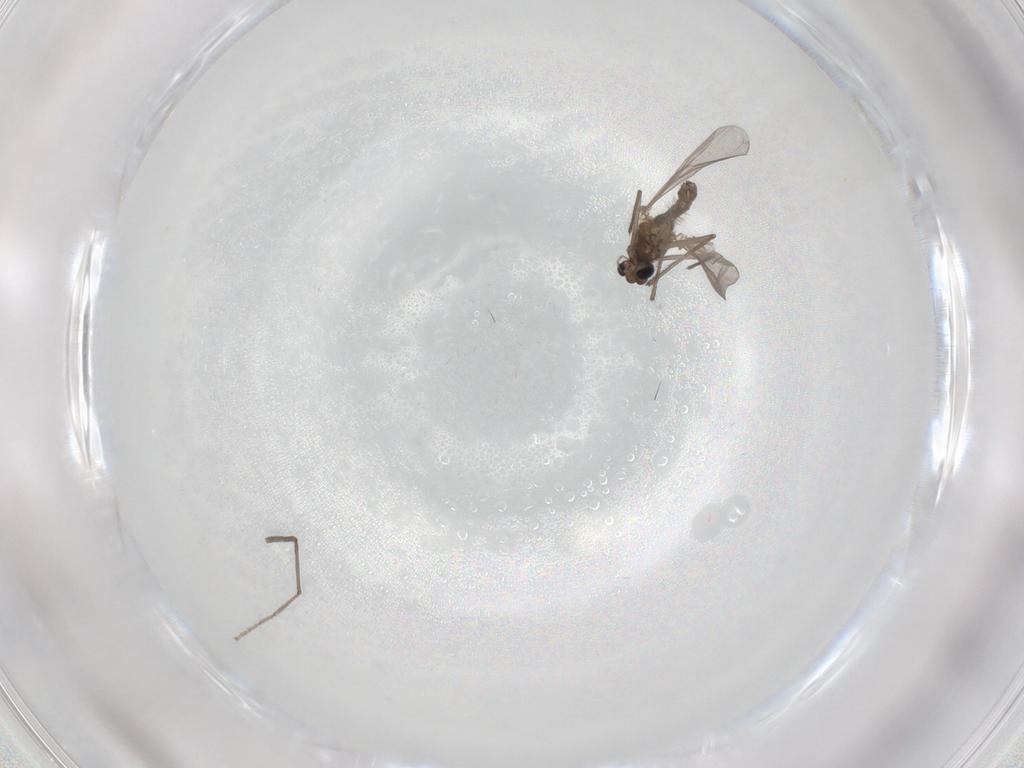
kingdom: Animalia
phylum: Arthropoda
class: Insecta
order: Diptera
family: Chironomidae
